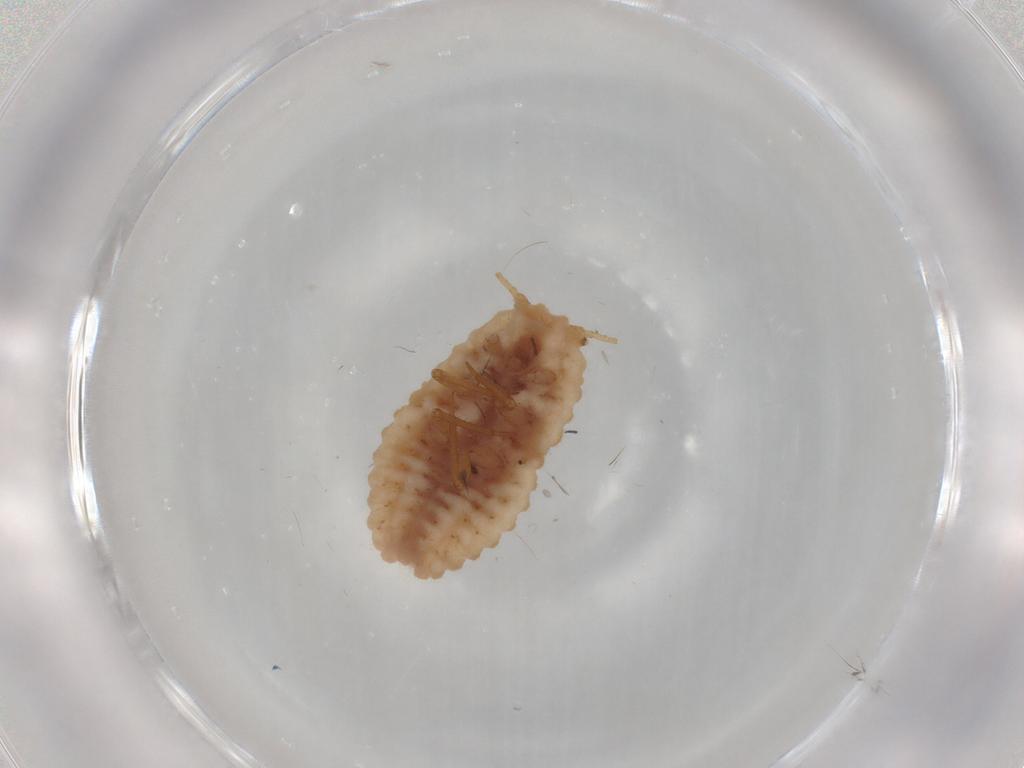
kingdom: Animalia
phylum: Arthropoda
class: Insecta
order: Hemiptera
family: Coccoidea_incertae_sedis
